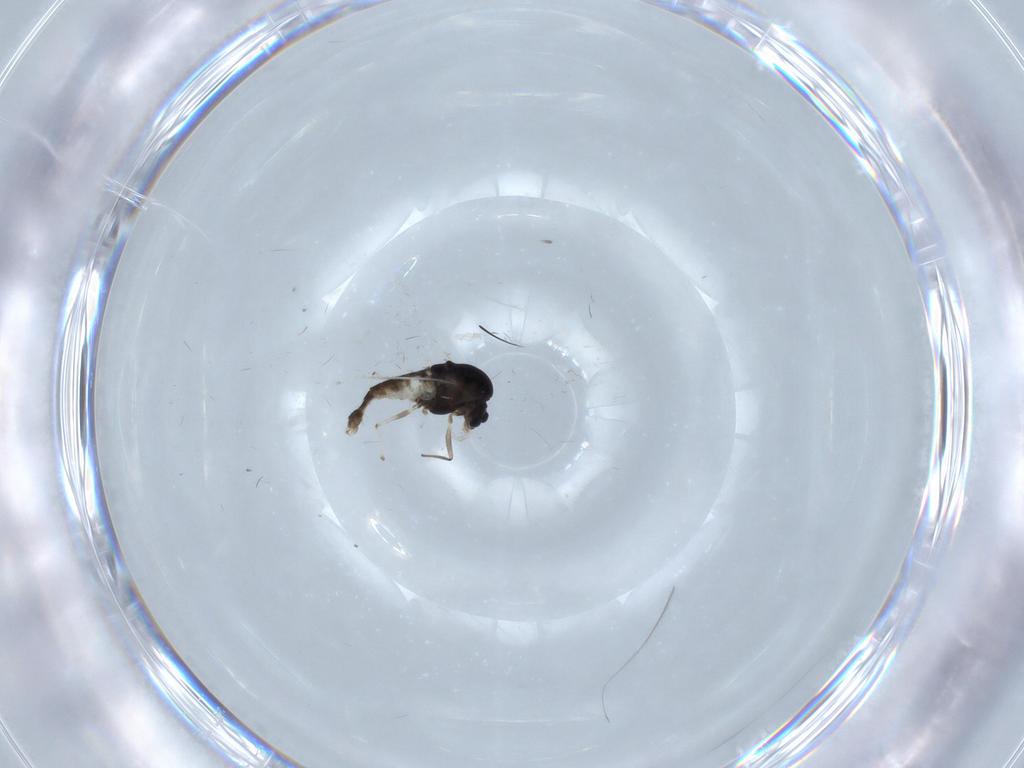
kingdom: Animalia
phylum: Arthropoda
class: Insecta
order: Diptera
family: Chironomidae
